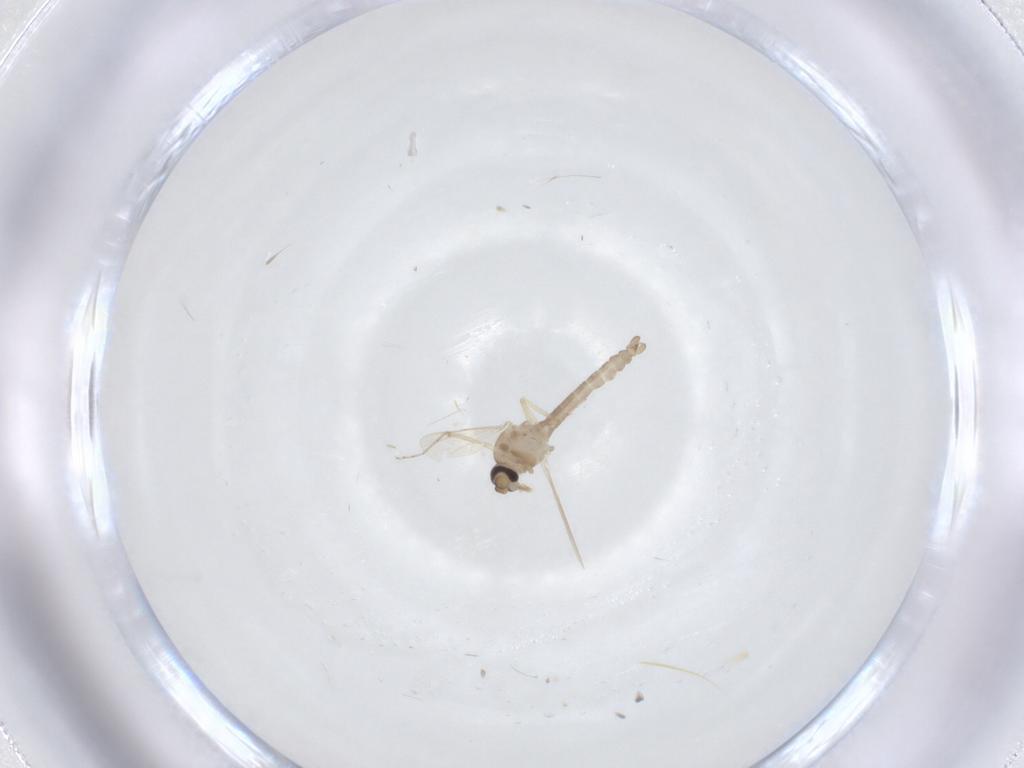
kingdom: Animalia
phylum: Arthropoda
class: Insecta
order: Diptera
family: Ceratopogonidae
